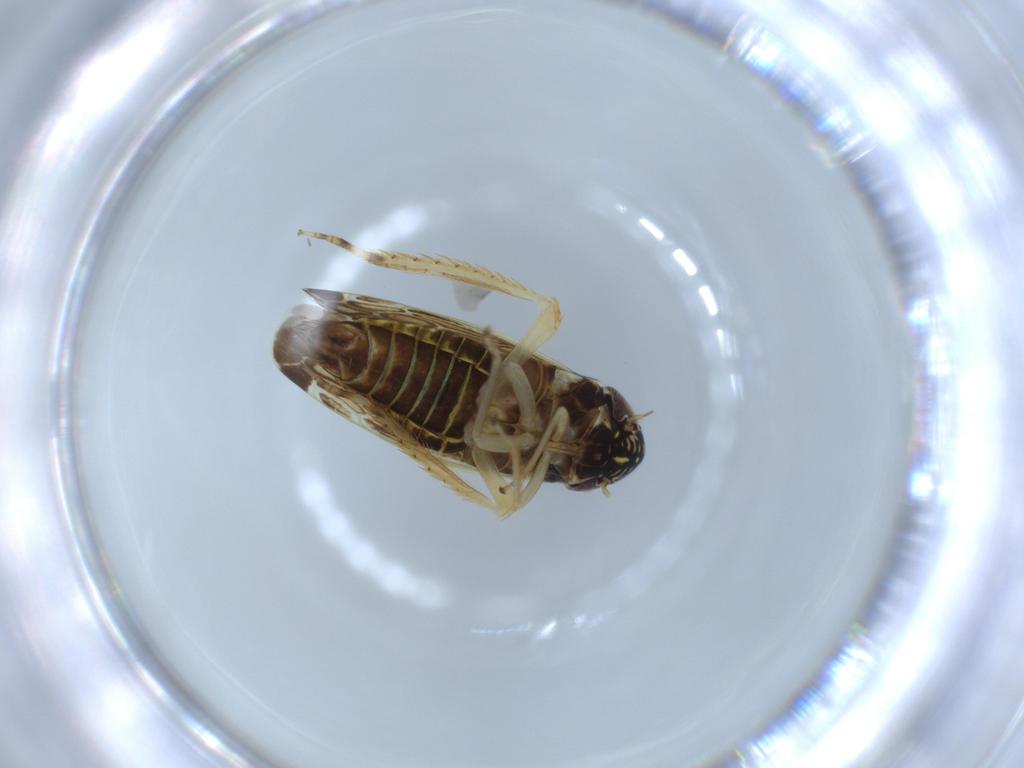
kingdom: Animalia
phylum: Arthropoda
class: Insecta
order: Hemiptera
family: Cicadellidae
